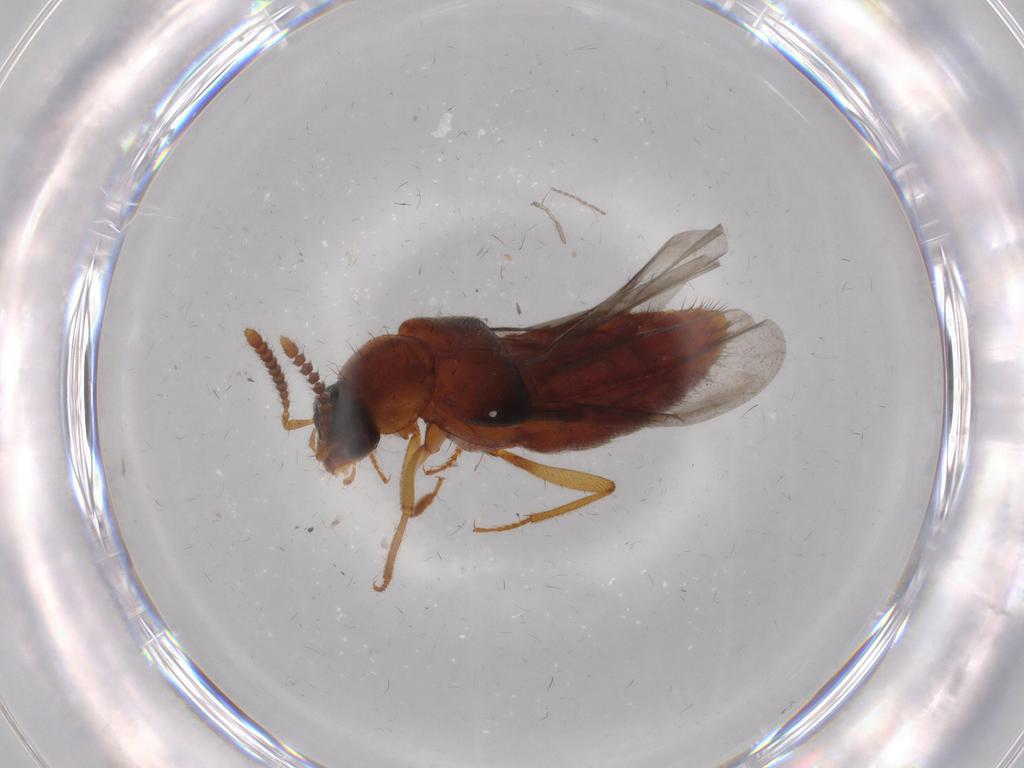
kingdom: Animalia
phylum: Arthropoda
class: Insecta
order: Coleoptera
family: Staphylinidae
